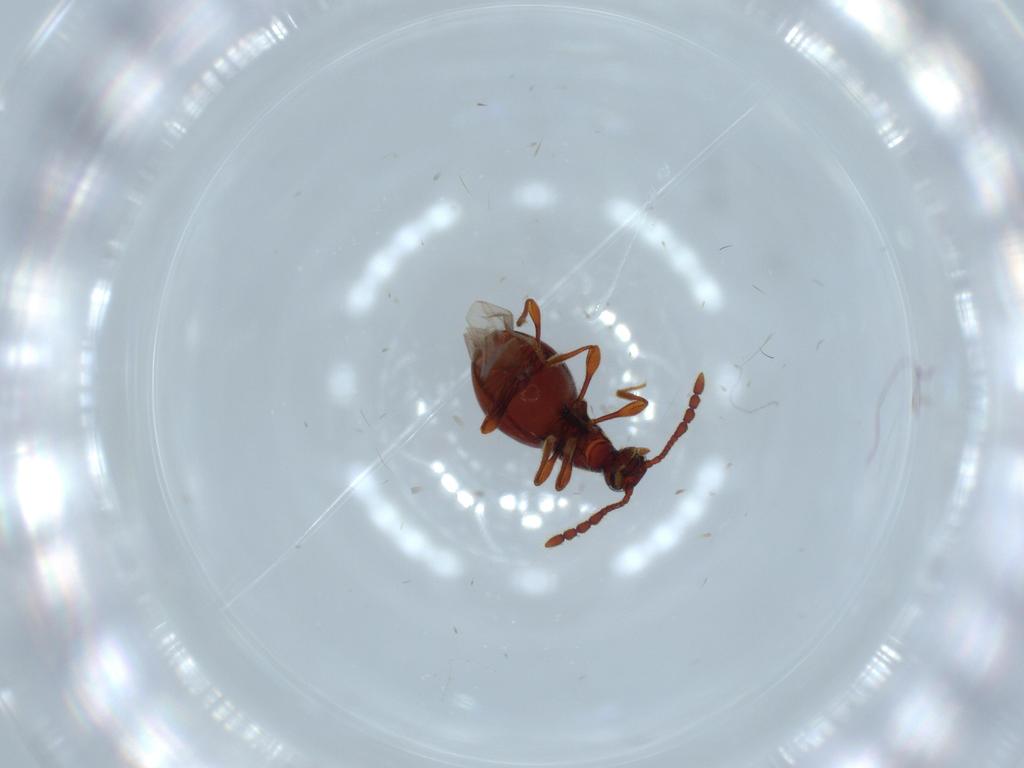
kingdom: Animalia
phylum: Arthropoda
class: Insecta
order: Coleoptera
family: Staphylinidae
